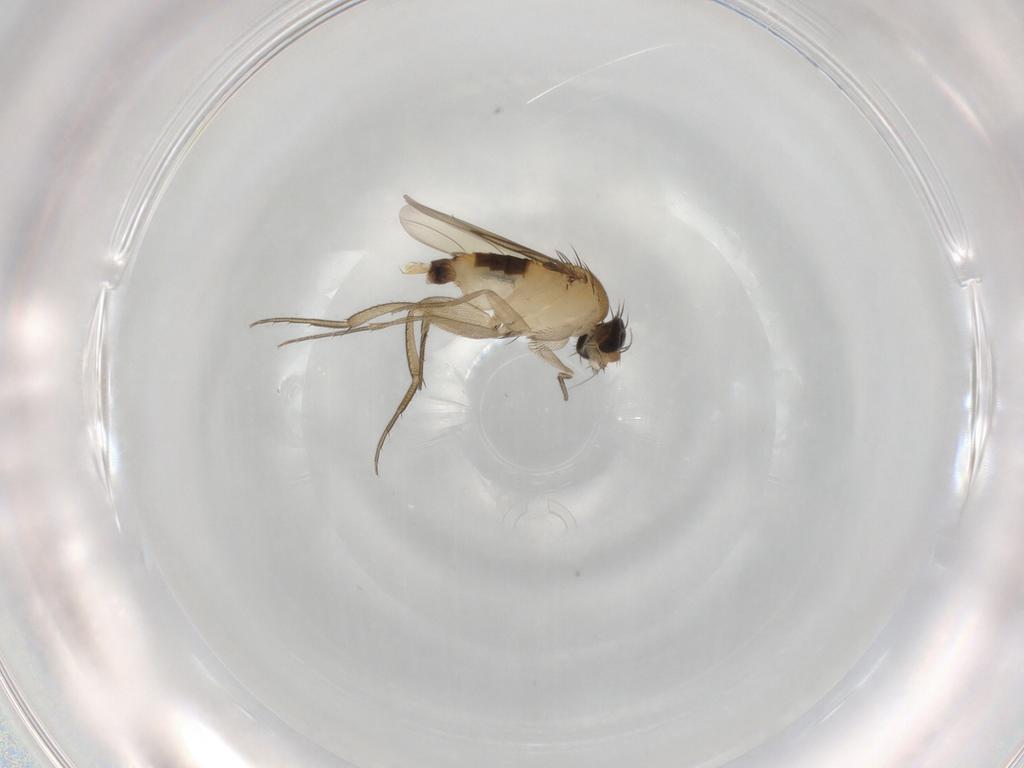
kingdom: Animalia
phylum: Arthropoda
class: Insecta
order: Diptera
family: Phoridae
